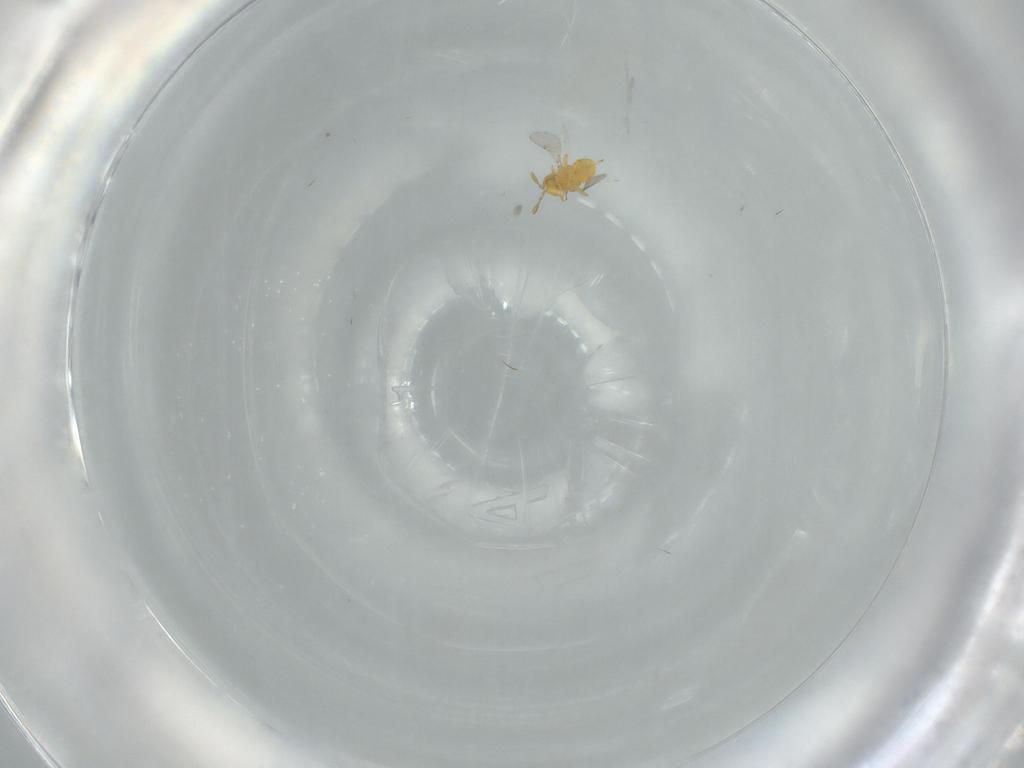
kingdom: Animalia
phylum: Arthropoda
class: Insecta
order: Hymenoptera
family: Encyrtidae
